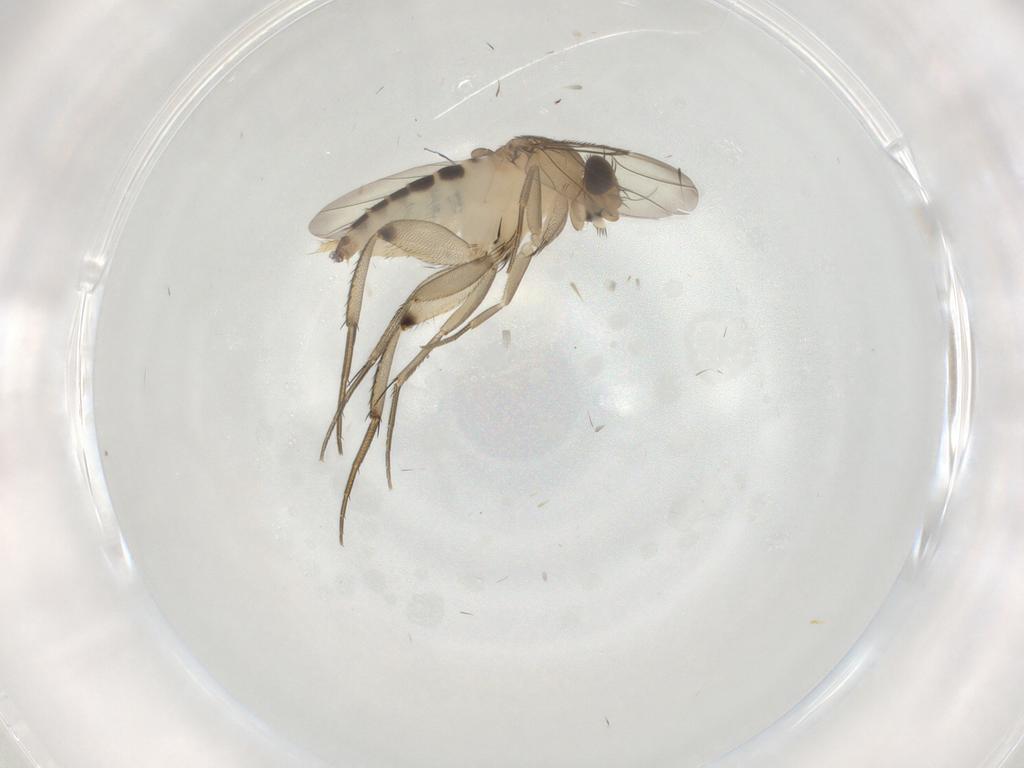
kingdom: Animalia
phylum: Arthropoda
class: Insecta
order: Diptera
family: Phoridae
